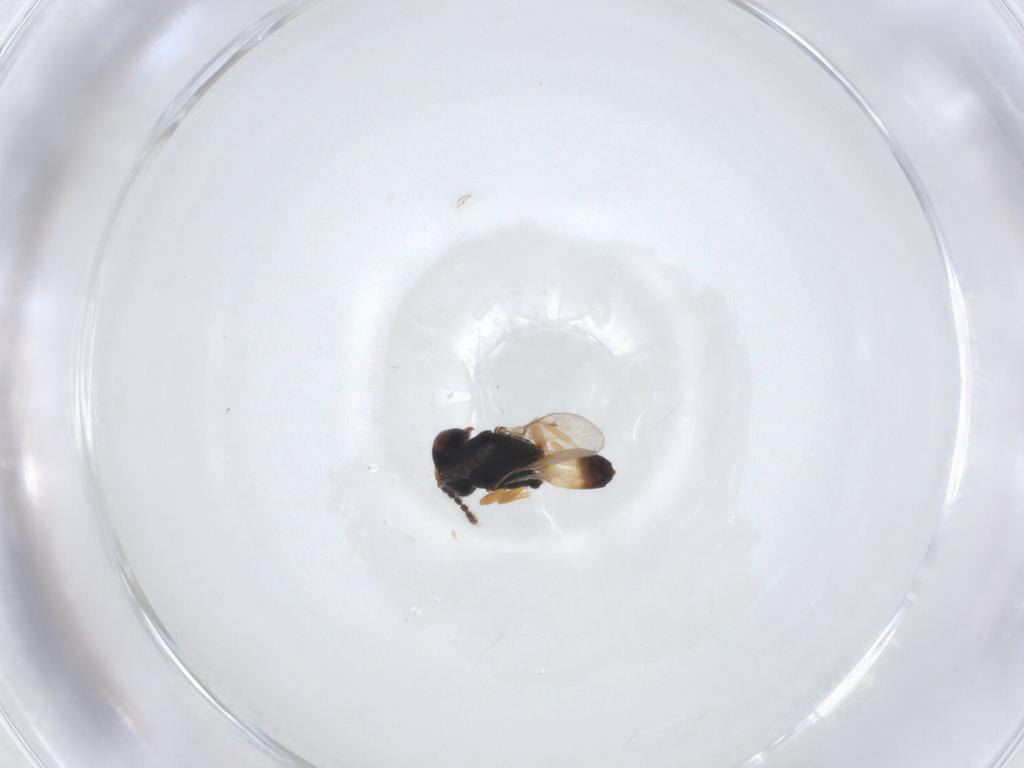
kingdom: Animalia
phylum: Arthropoda
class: Insecta
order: Hymenoptera
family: Pteromalidae
